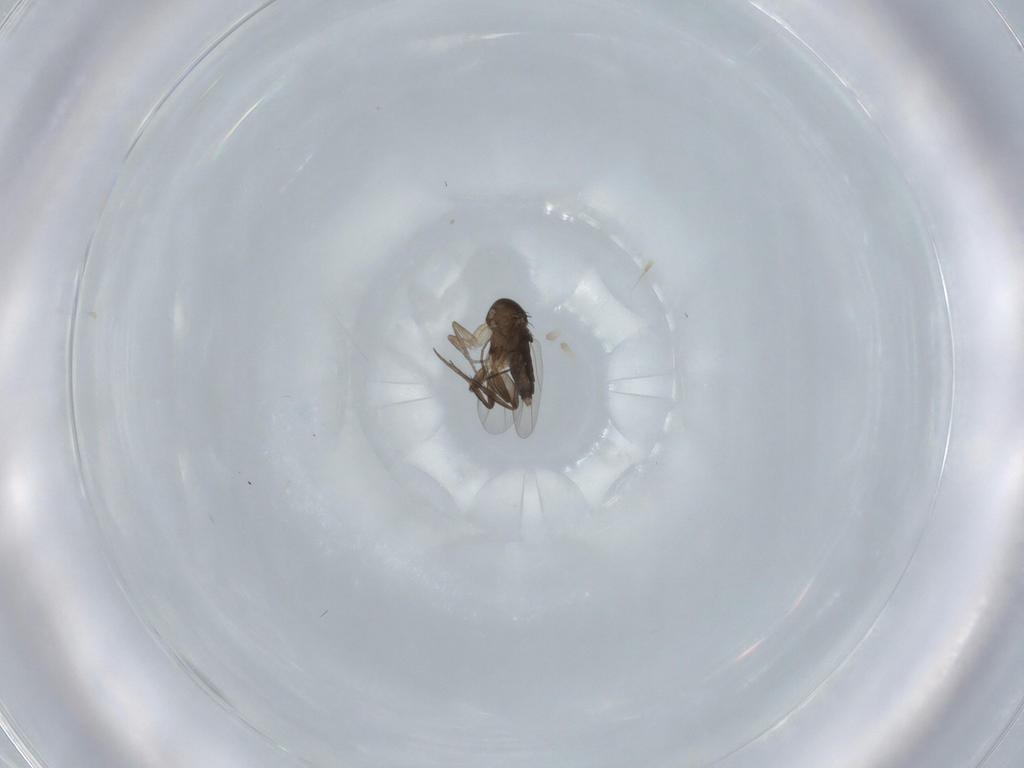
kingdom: Animalia
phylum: Arthropoda
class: Insecta
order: Diptera
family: Phoridae
